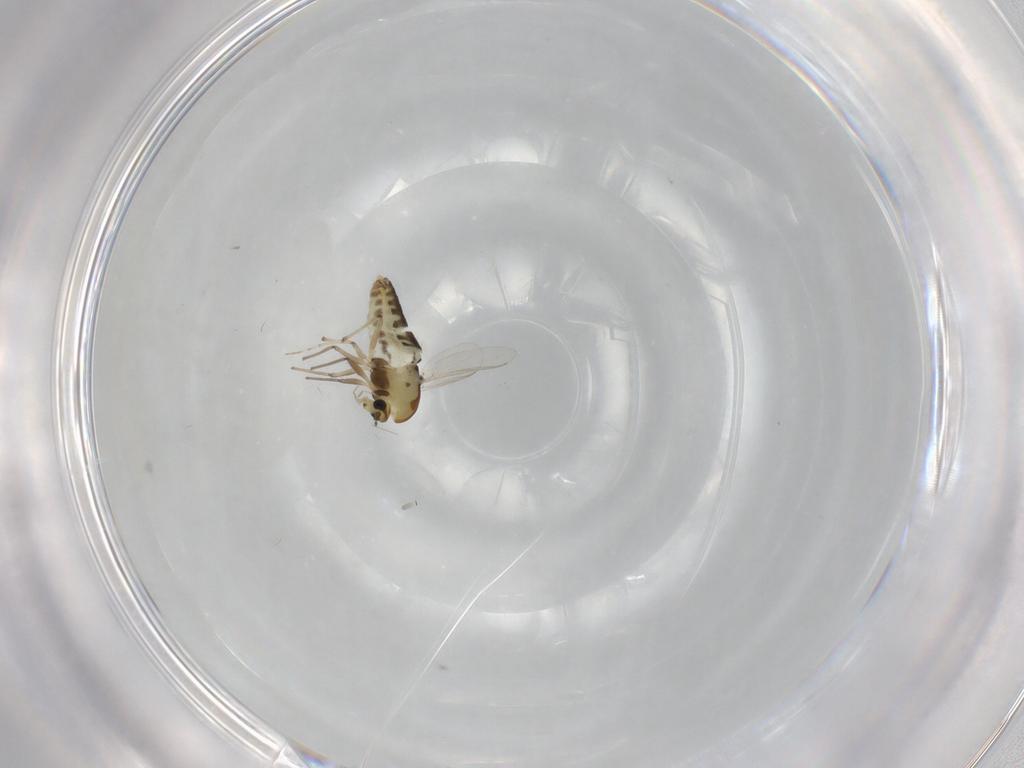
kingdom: Animalia
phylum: Arthropoda
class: Insecta
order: Diptera
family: Chironomidae
